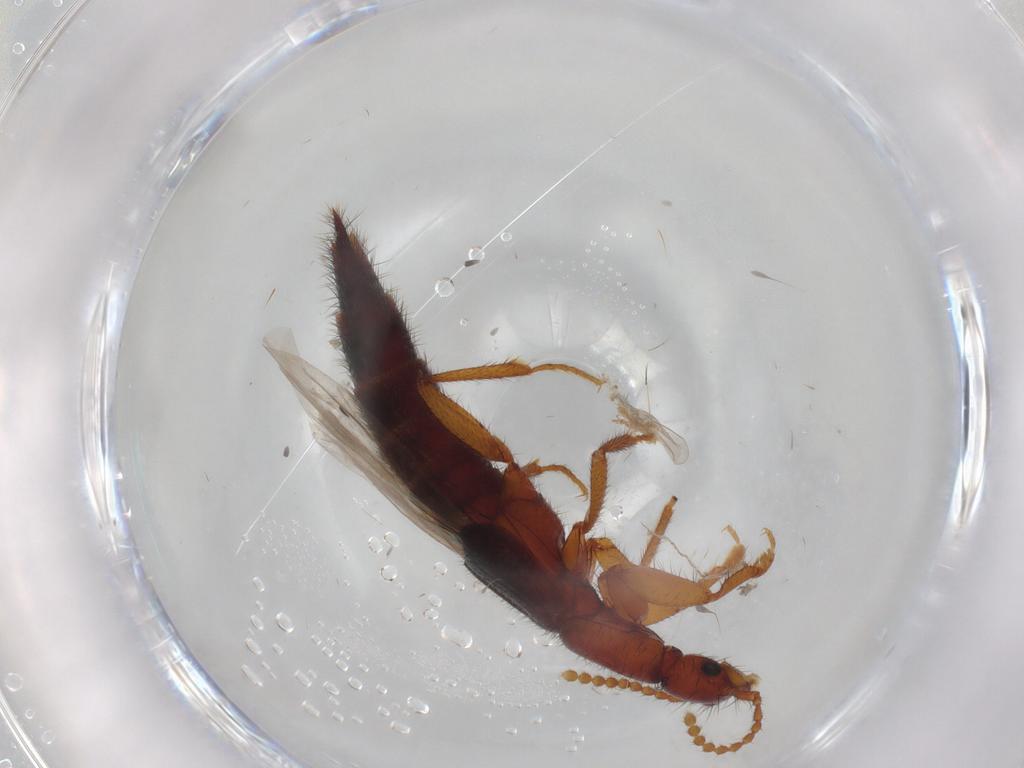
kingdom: Animalia
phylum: Arthropoda
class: Insecta
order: Coleoptera
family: Staphylinidae
